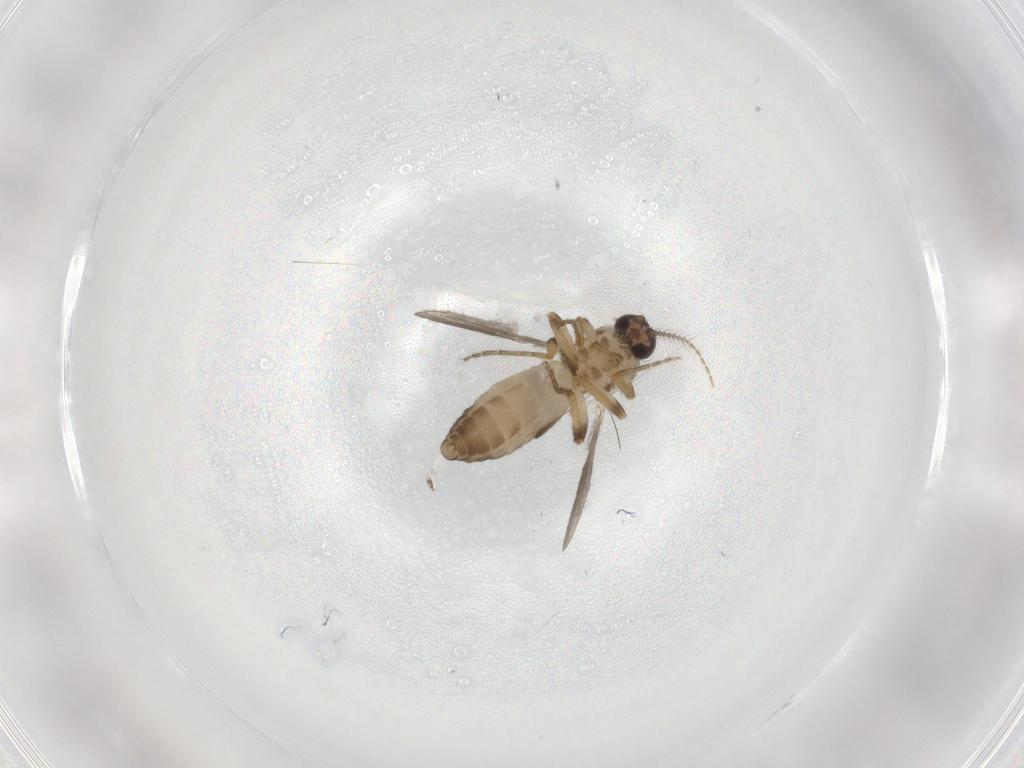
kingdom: Animalia
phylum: Arthropoda
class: Insecta
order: Diptera
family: Ceratopogonidae
